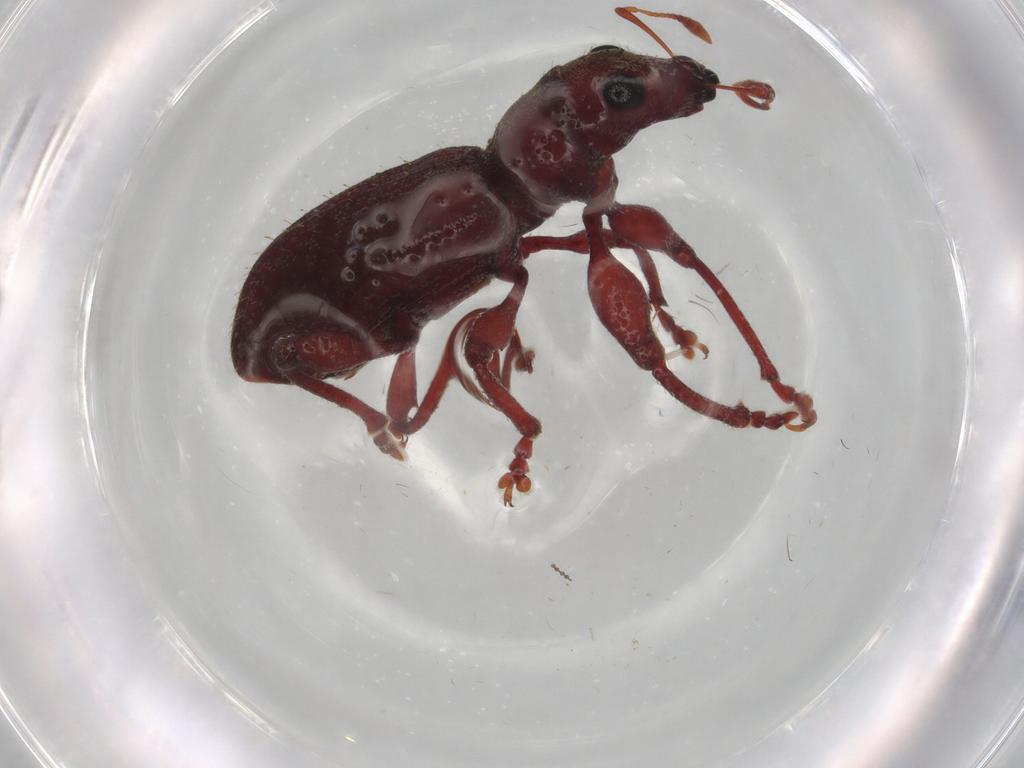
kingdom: Animalia
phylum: Arthropoda
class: Insecta
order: Coleoptera
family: Curculionidae
